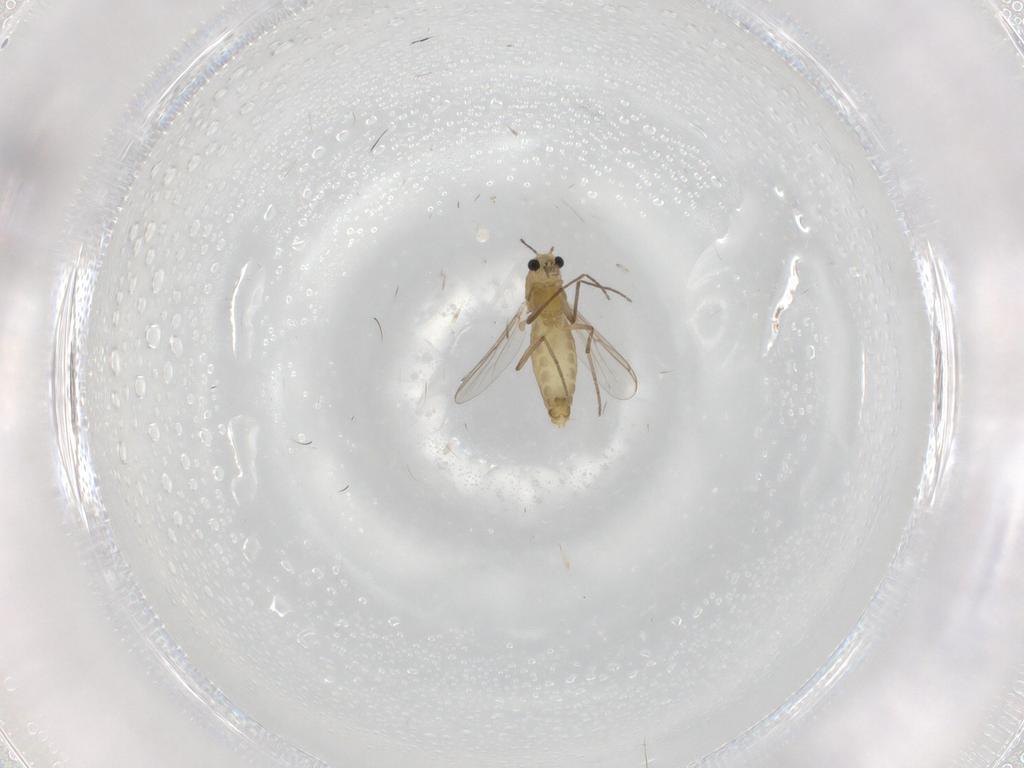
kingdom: Animalia
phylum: Arthropoda
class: Insecta
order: Diptera
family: Chironomidae
